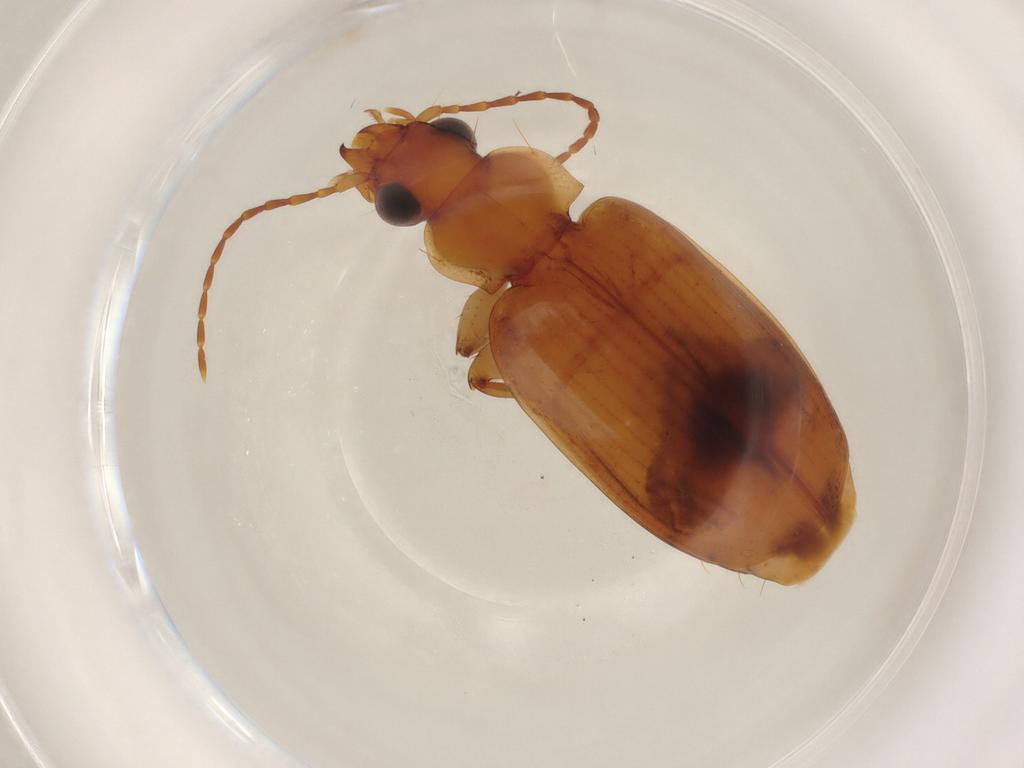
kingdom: Animalia
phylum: Arthropoda
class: Insecta
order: Coleoptera
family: Carabidae
